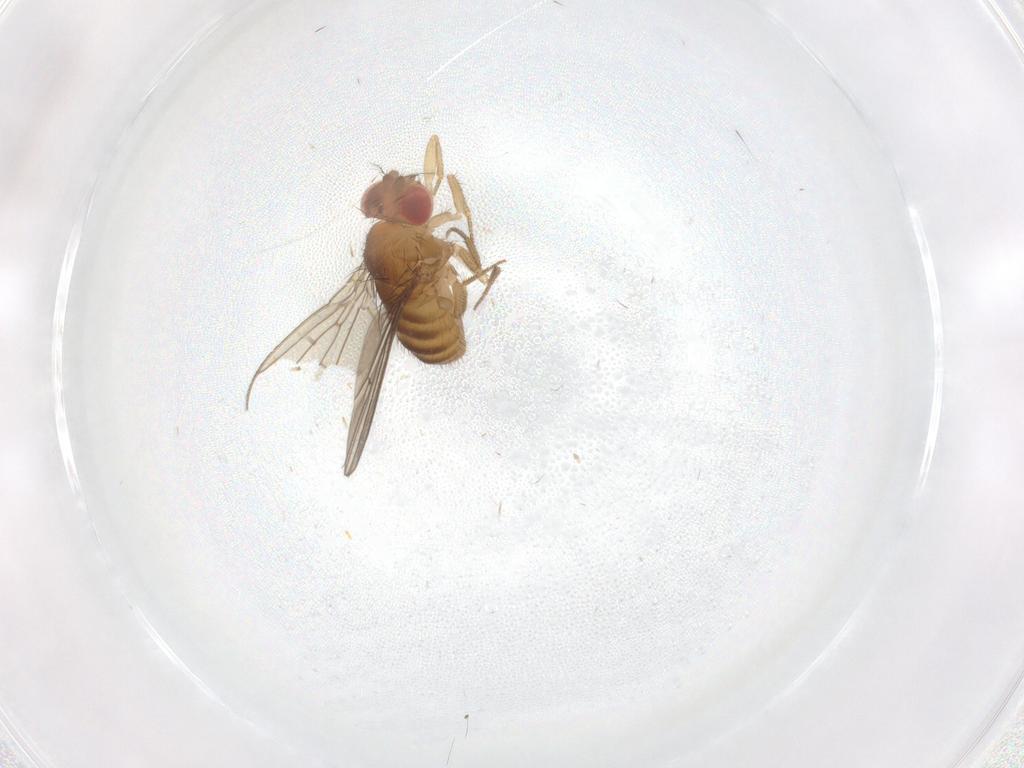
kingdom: Animalia
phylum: Arthropoda
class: Insecta
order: Diptera
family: Drosophilidae
